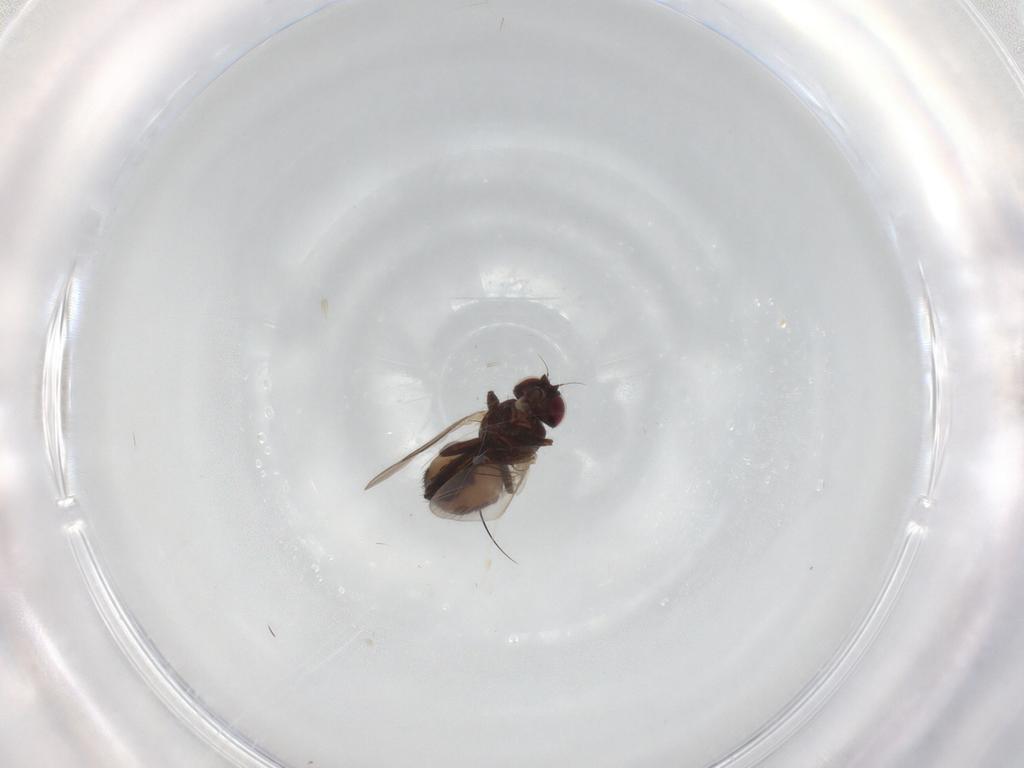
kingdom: Animalia
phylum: Arthropoda
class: Insecta
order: Diptera
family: Agromyzidae
